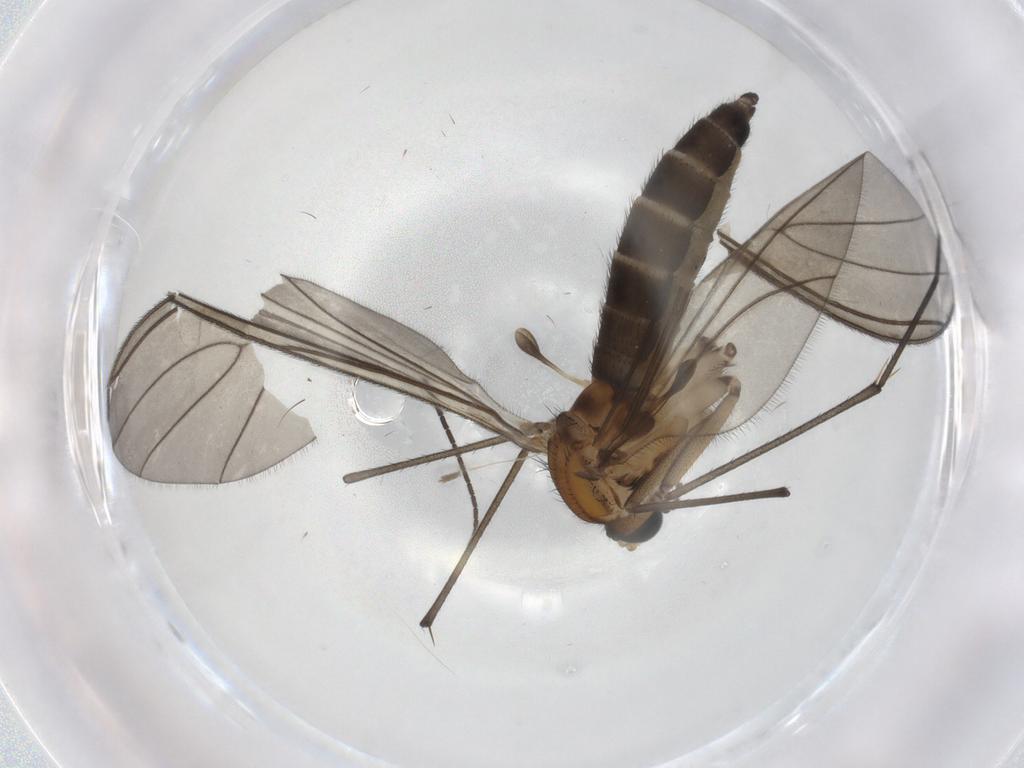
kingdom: Animalia
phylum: Arthropoda
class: Insecta
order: Diptera
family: Sciaridae
